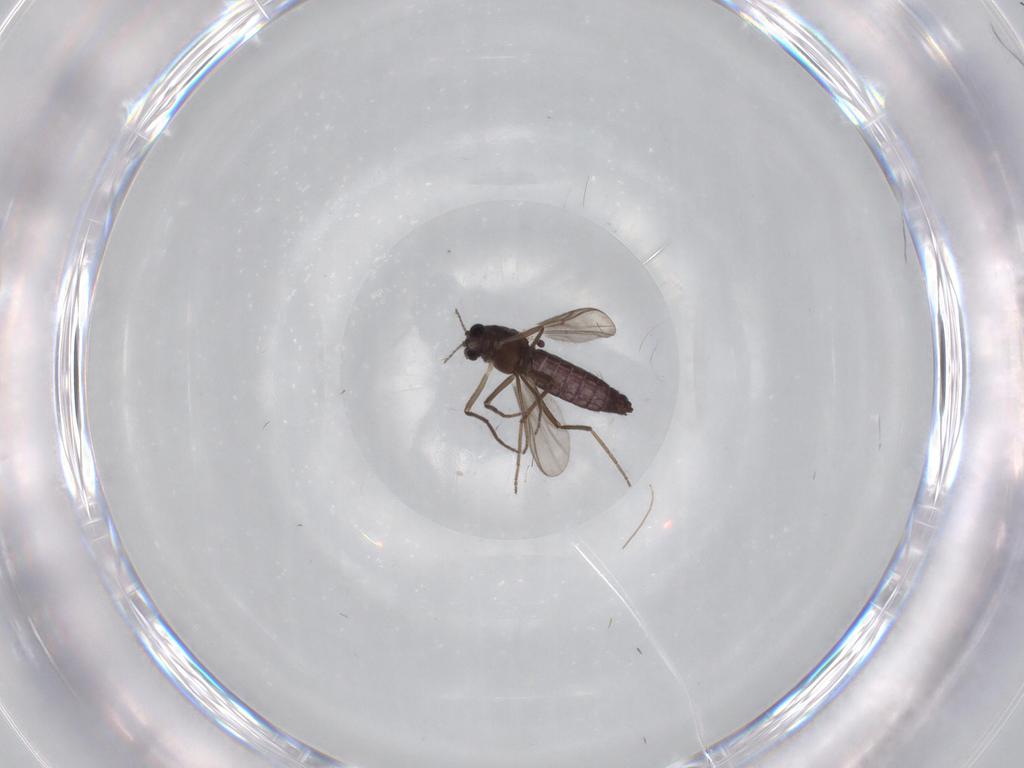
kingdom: Animalia
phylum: Arthropoda
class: Insecta
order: Diptera
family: Chironomidae
